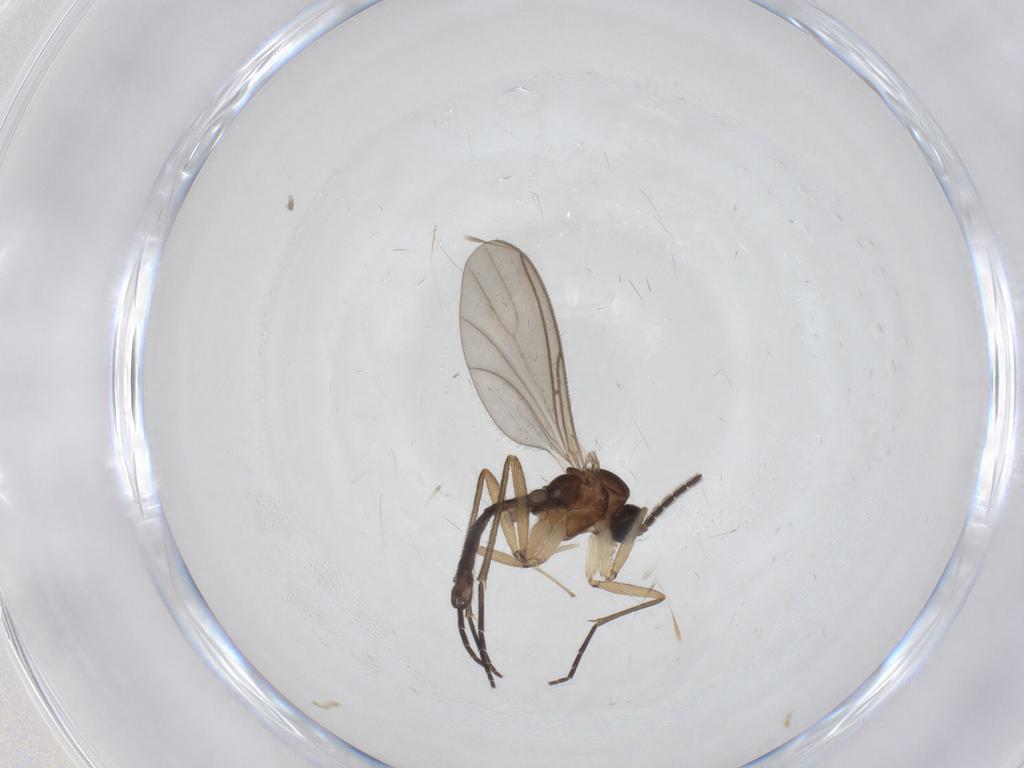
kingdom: Animalia
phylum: Arthropoda
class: Insecta
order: Diptera
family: Sciaridae
